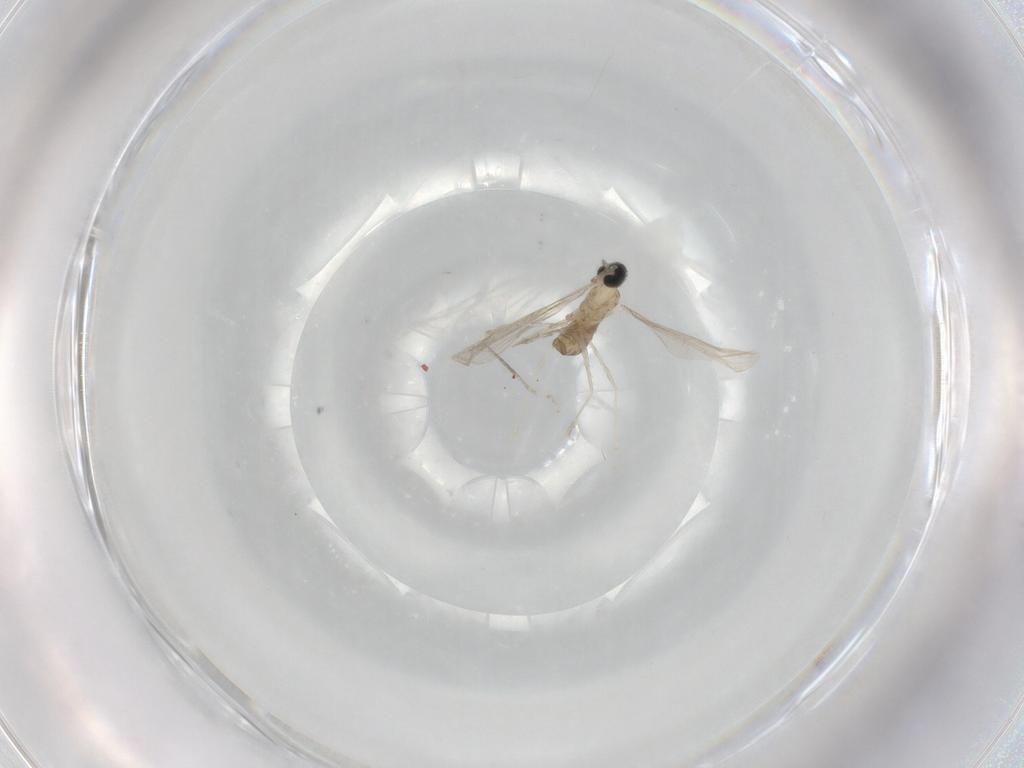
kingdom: Animalia
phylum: Arthropoda
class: Insecta
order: Diptera
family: Cecidomyiidae
